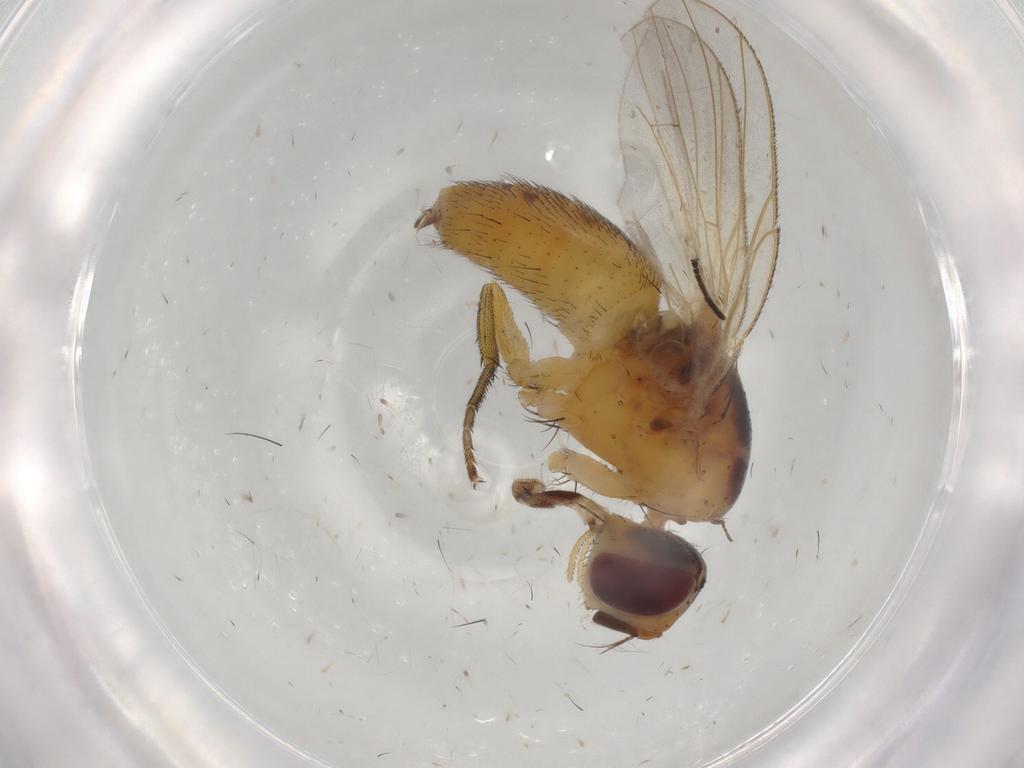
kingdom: Animalia
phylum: Arthropoda
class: Insecta
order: Diptera
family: Muscidae
